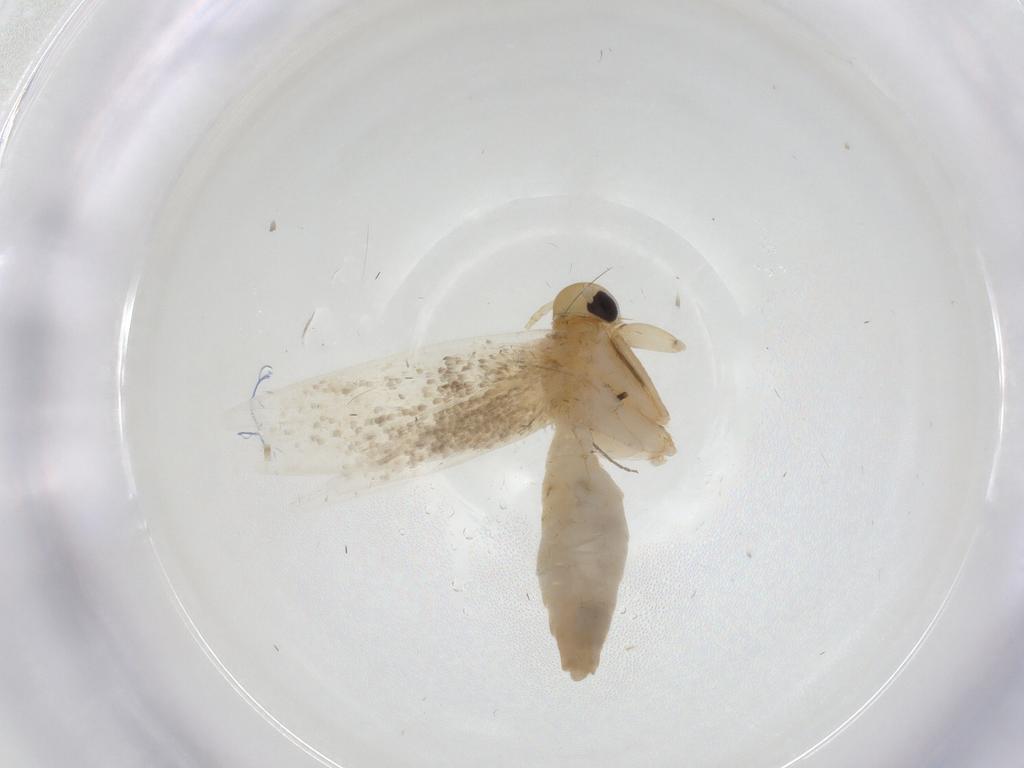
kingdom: Animalia
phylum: Arthropoda
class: Insecta
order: Lepidoptera
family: Erebidae
